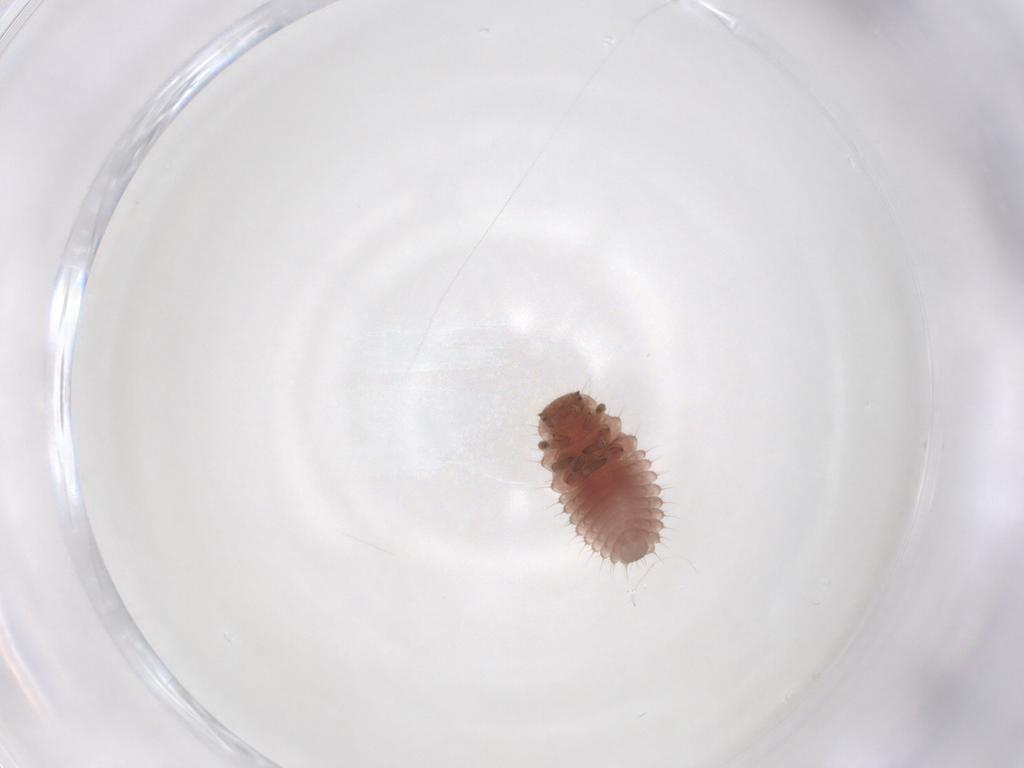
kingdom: Animalia
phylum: Arthropoda
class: Insecta
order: Coleoptera
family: Coccinellidae
